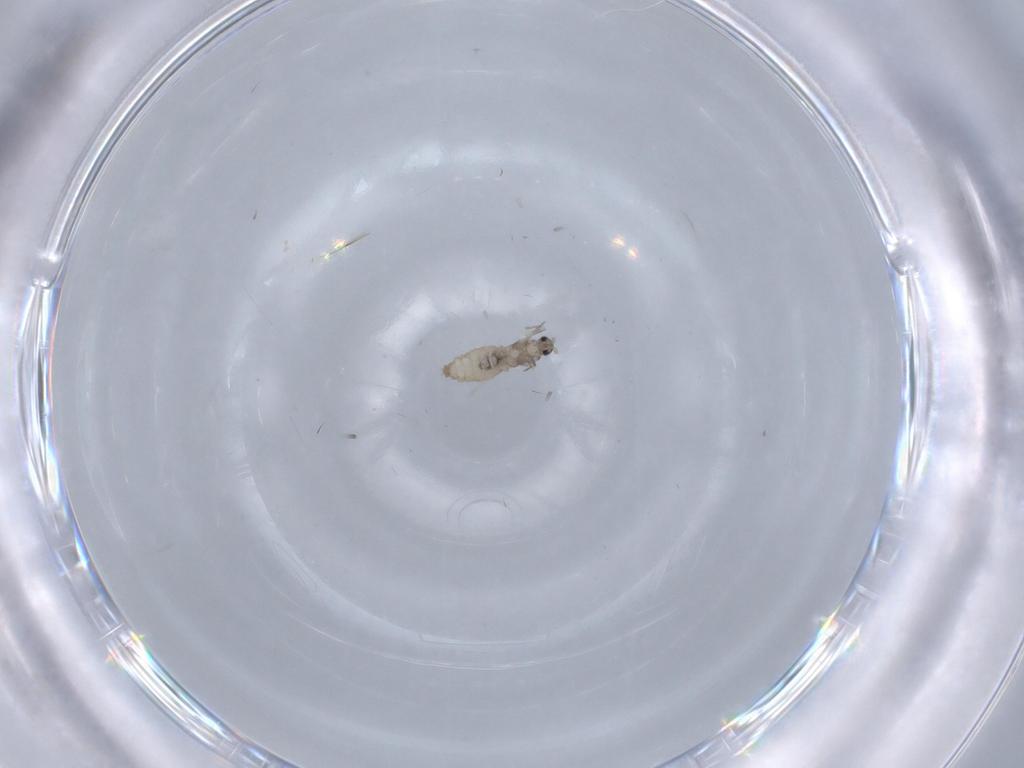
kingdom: Animalia
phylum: Arthropoda
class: Insecta
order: Diptera
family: Cecidomyiidae
